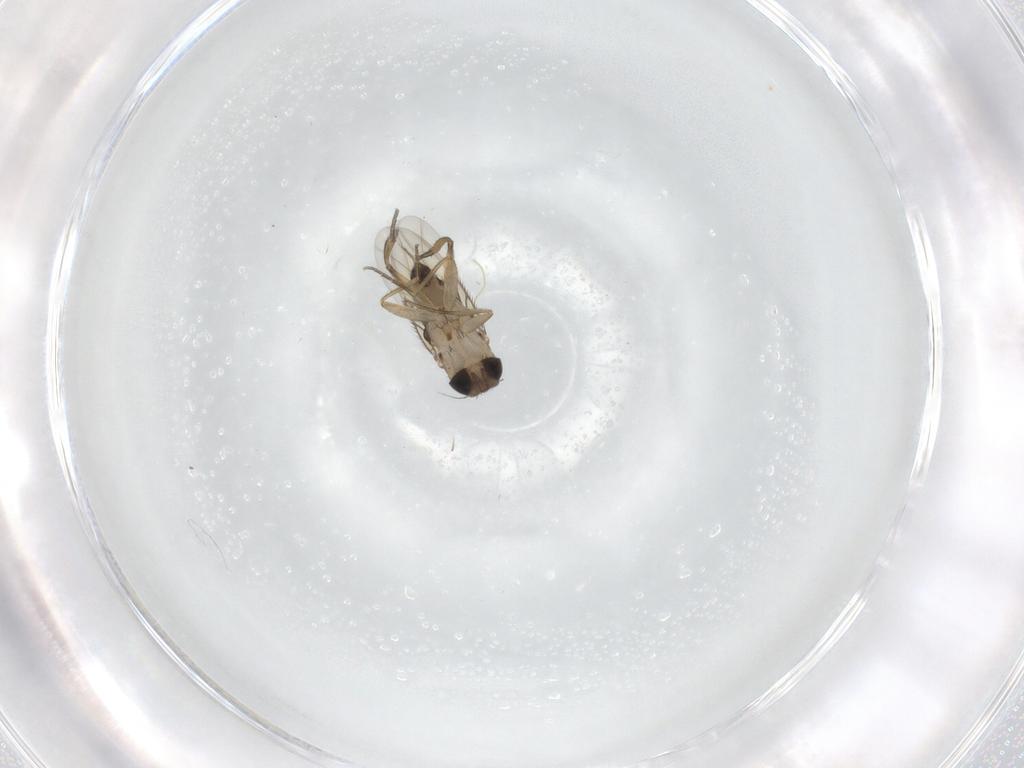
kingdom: Animalia
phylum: Arthropoda
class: Insecta
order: Diptera
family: Phoridae
